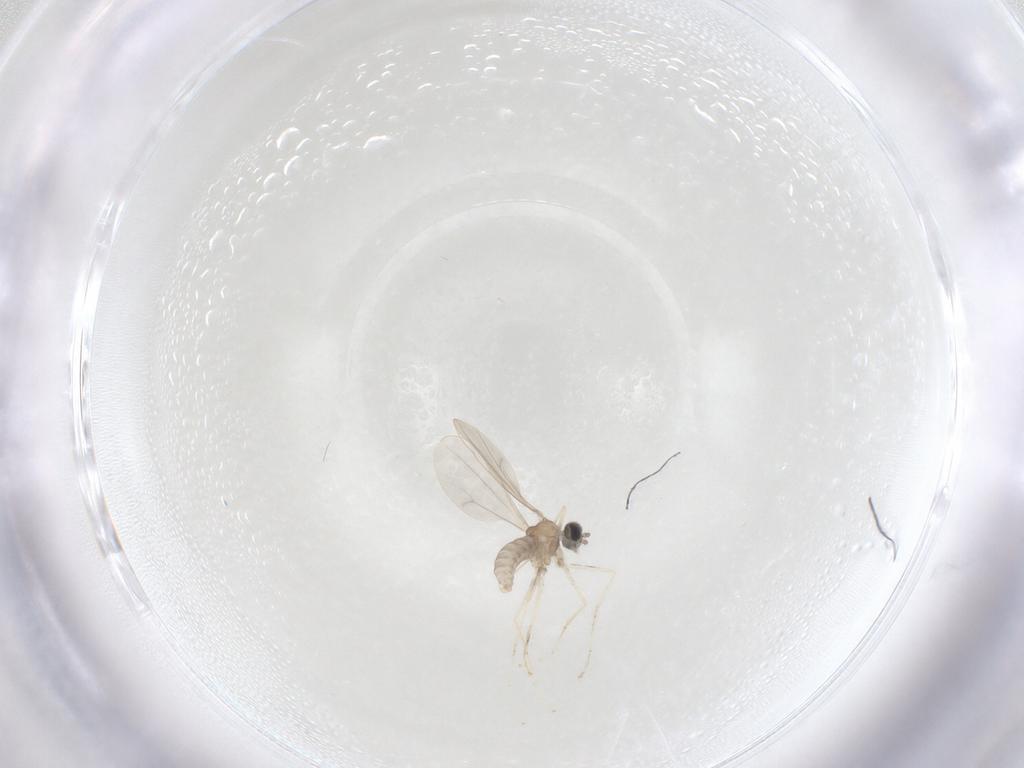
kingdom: Animalia
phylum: Arthropoda
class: Insecta
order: Diptera
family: Cecidomyiidae
